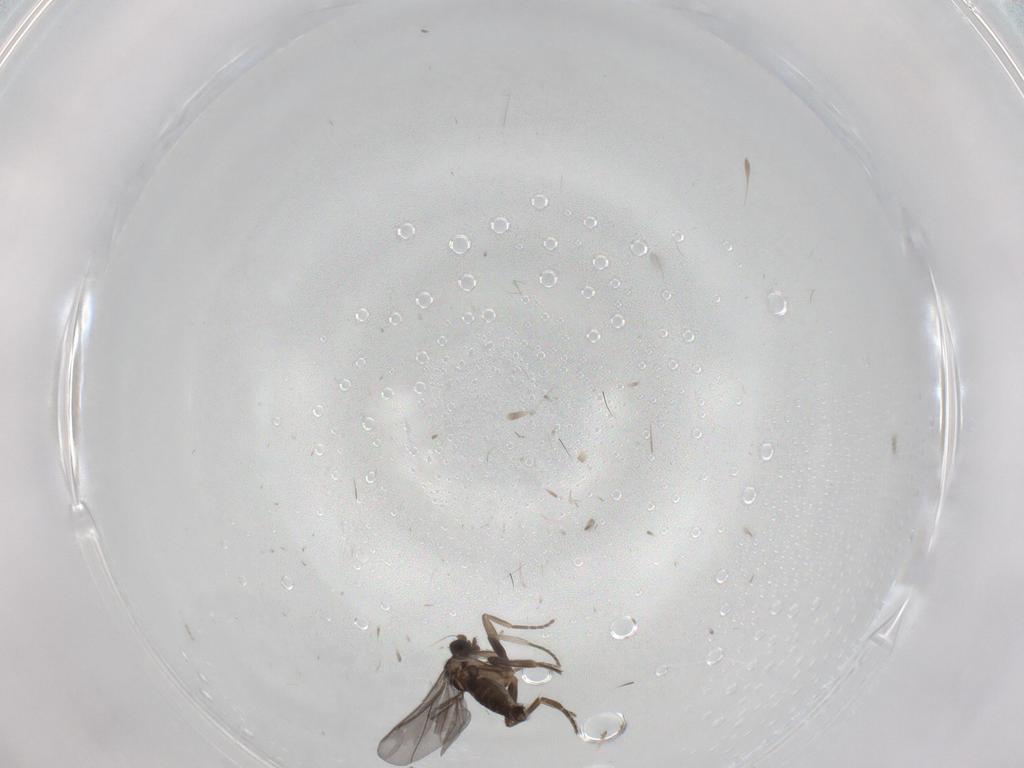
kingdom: Animalia
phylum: Arthropoda
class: Insecta
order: Diptera
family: Phoridae
